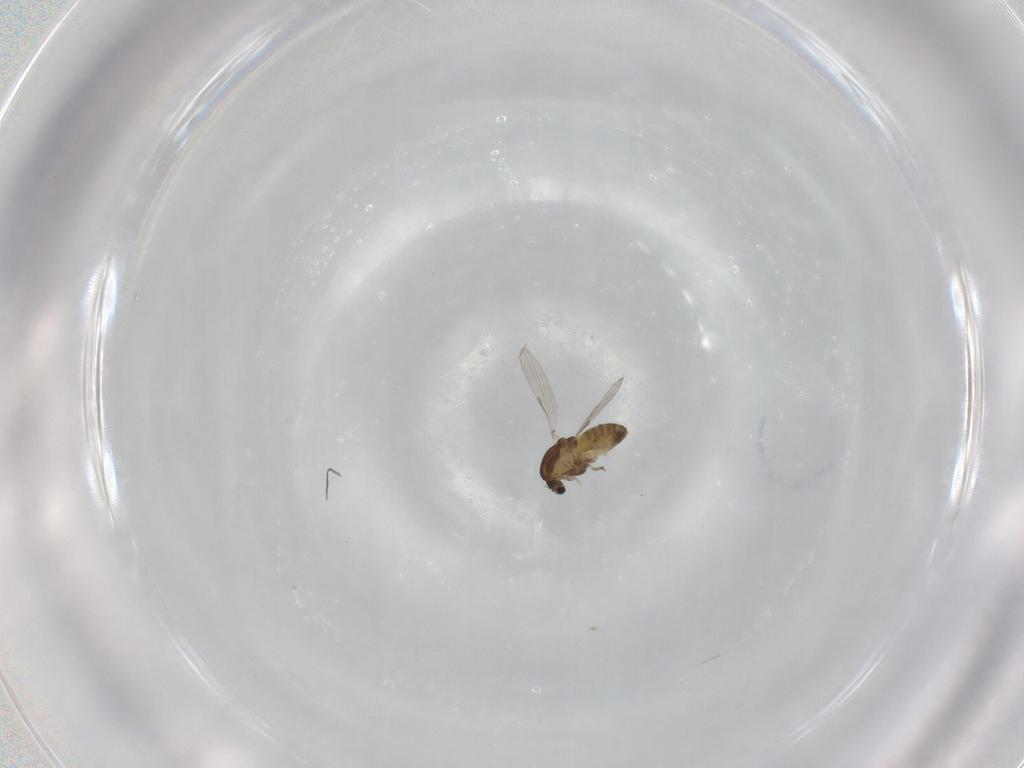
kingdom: Animalia
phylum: Arthropoda
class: Insecta
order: Diptera
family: Chironomidae
